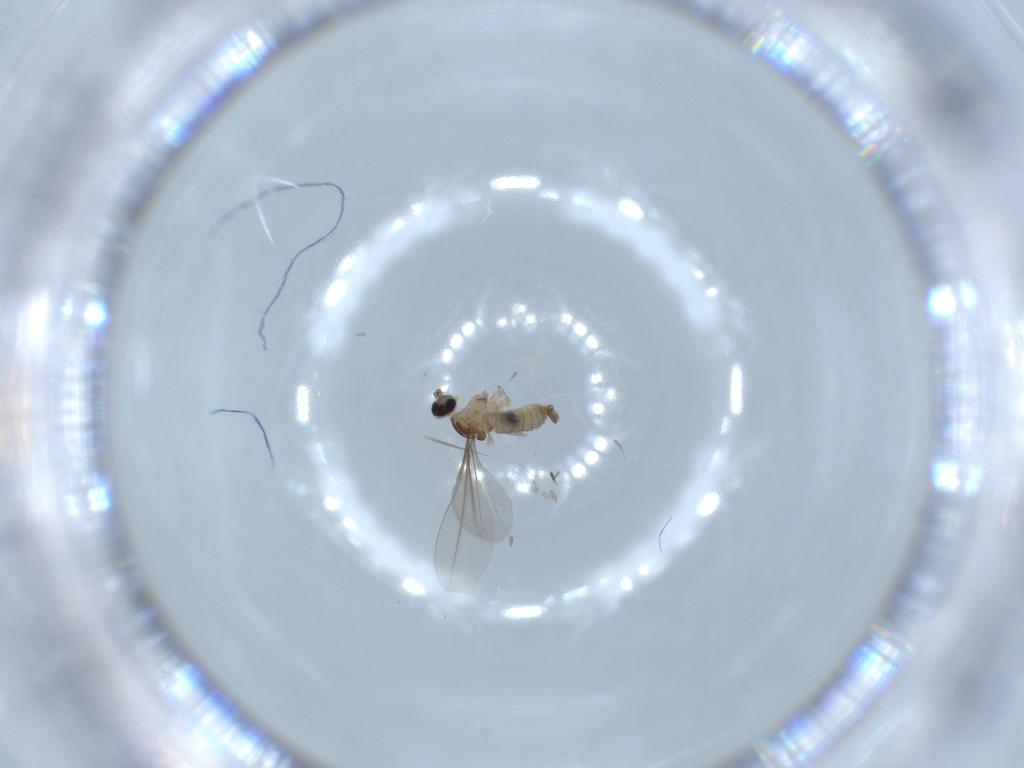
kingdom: Animalia
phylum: Arthropoda
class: Insecta
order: Diptera
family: Cecidomyiidae
